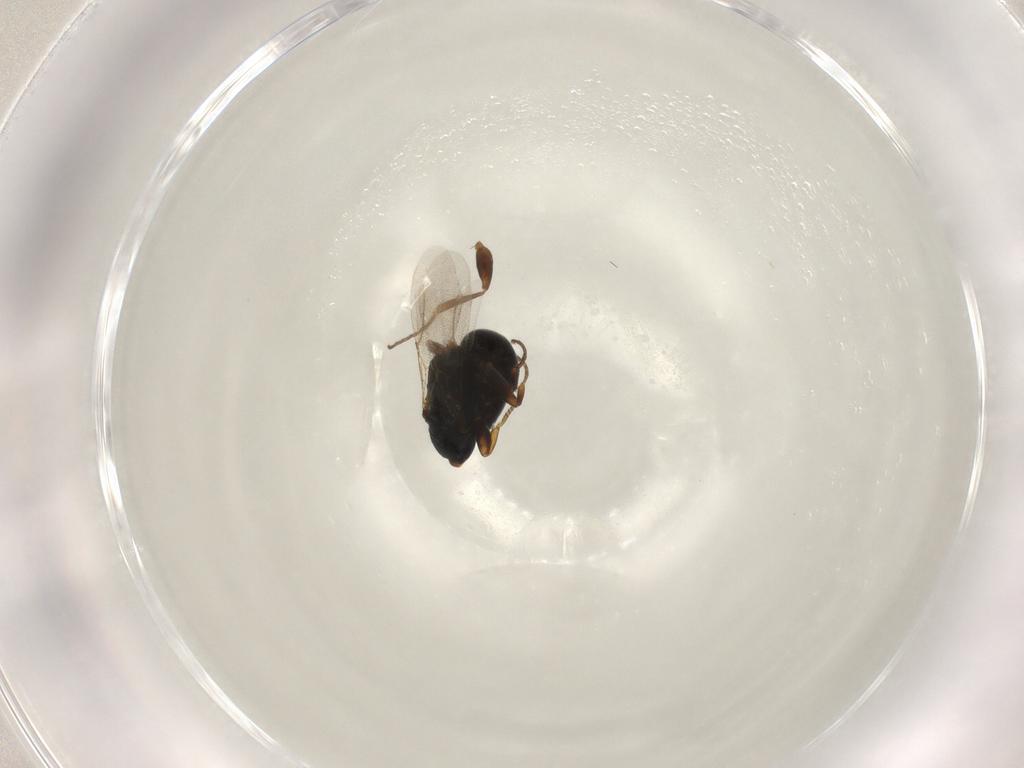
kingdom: Animalia
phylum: Arthropoda
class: Insecta
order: Hymenoptera
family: Bethylidae
